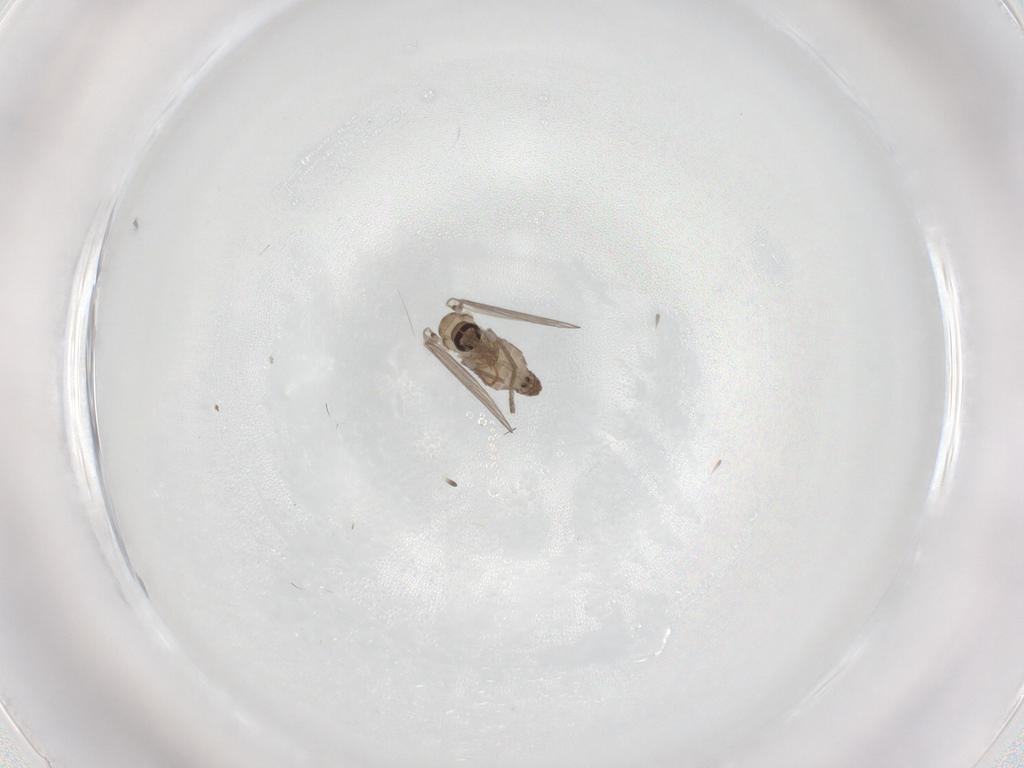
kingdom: Animalia
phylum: Arthropoda
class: Insecta
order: Diptera
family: Psychodidae
